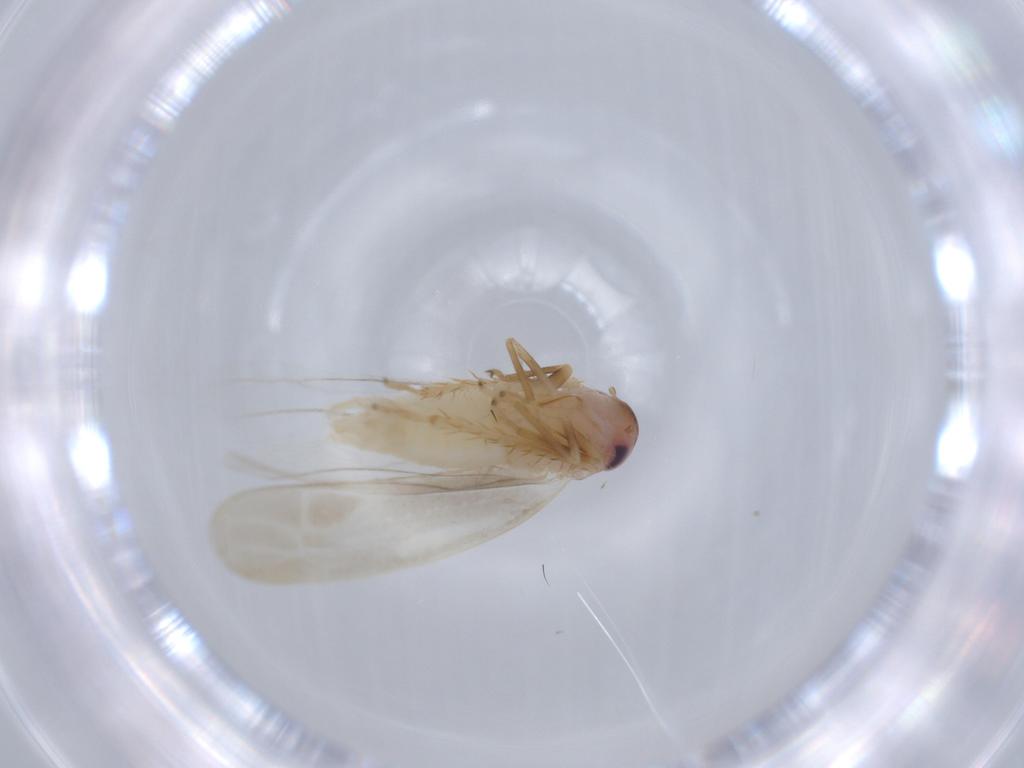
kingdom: Animalia
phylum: Arthropoda
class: Insecta
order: Hemiptera
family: Cicadellidae
